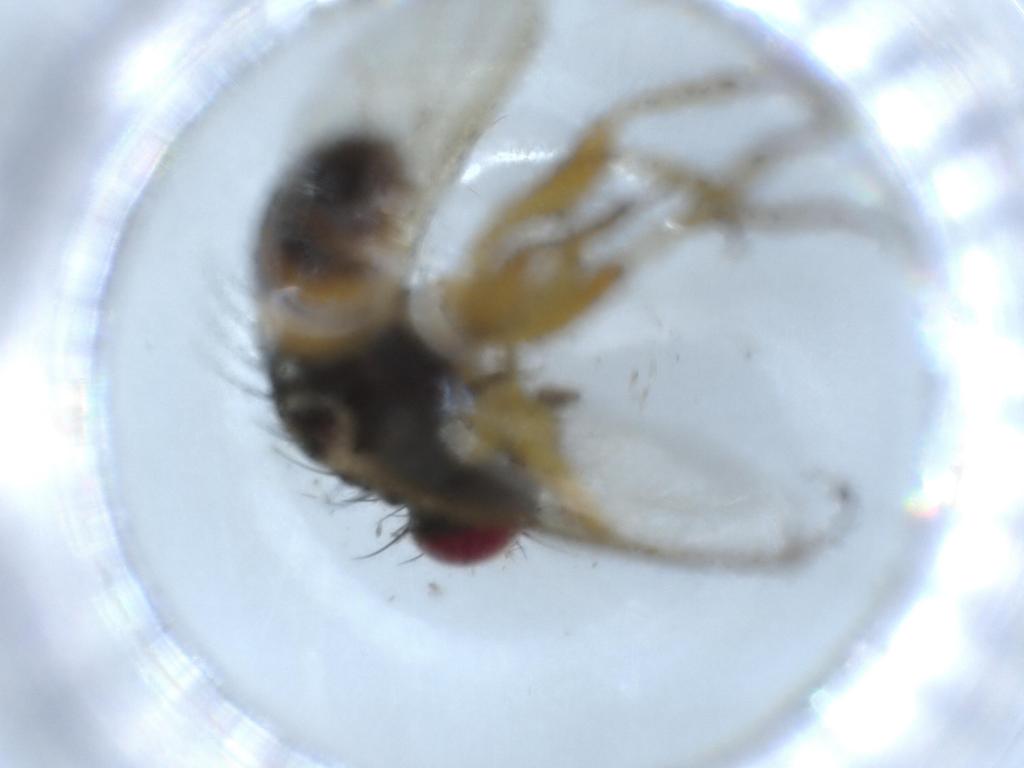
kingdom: Animalia
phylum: Arthropoda
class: Insecta
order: Diptera
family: Muscidae
